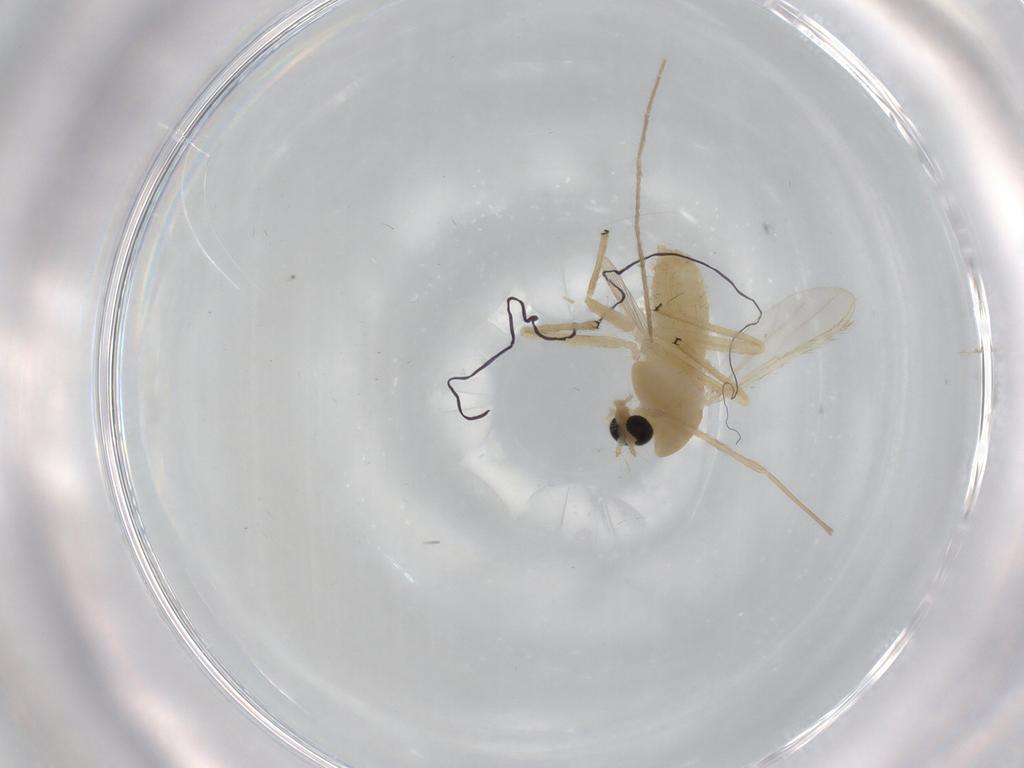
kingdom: Animalia
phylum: Arthropoda
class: Insecta
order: Diptera
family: Chironomidae
